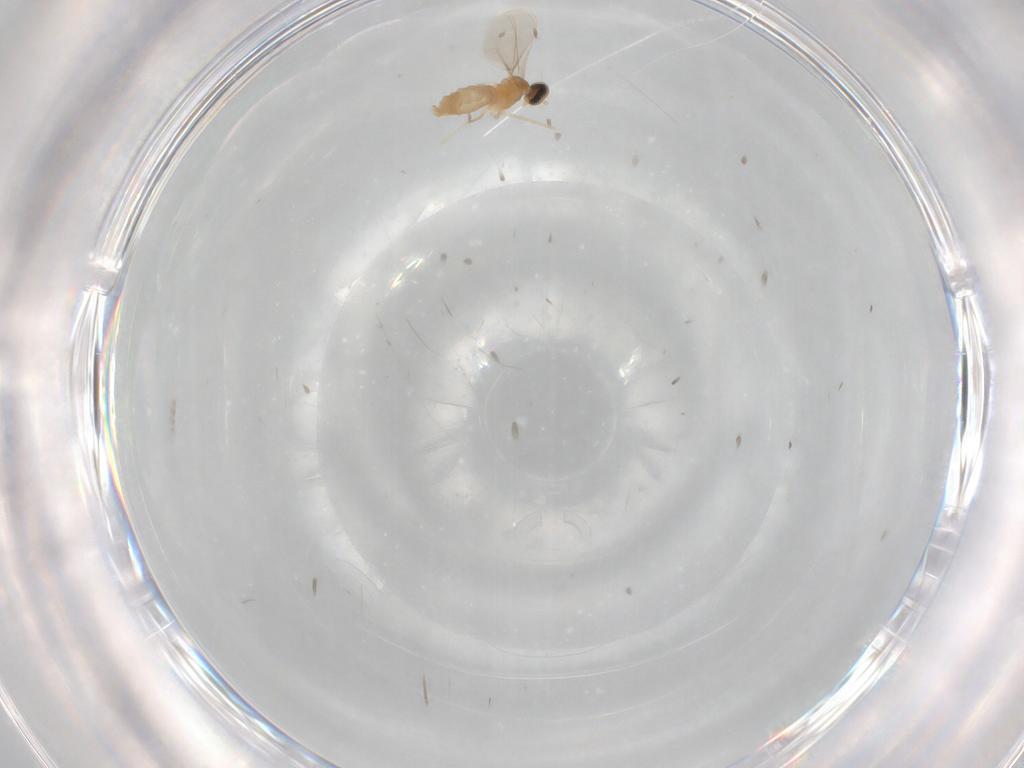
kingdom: Animalia
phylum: Arthropoda
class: Insecta
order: Diptera
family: Cecidomyiidae
